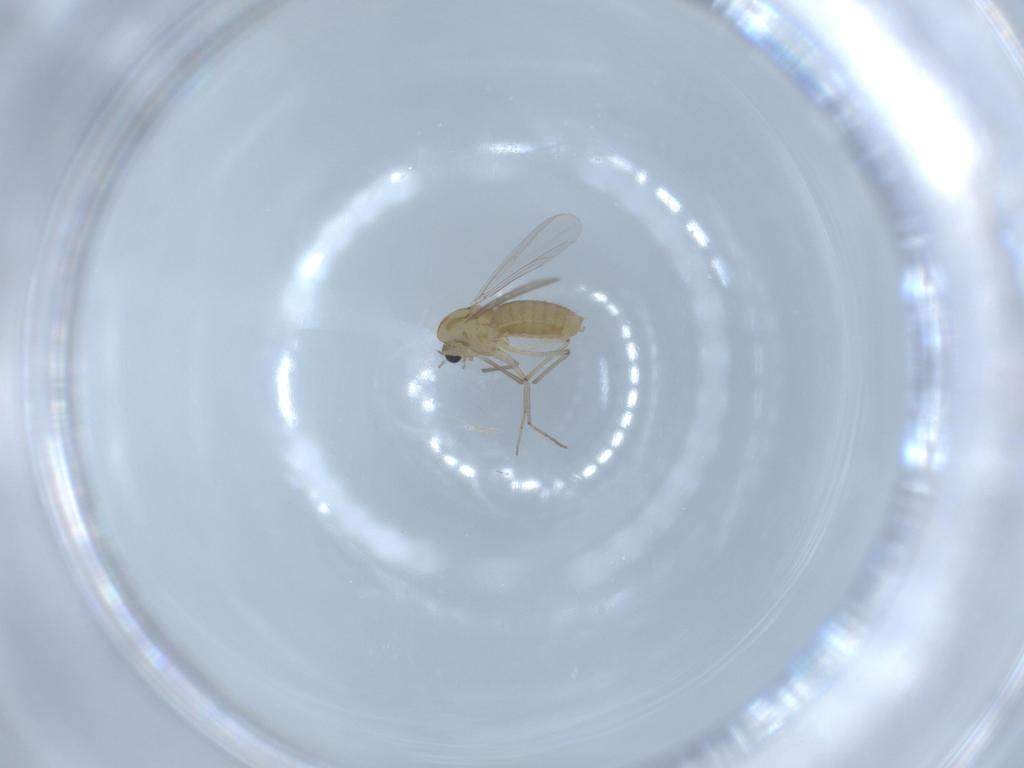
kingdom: Animalia
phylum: Arthropoda
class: Insecta
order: Diptera
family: Chironomidae
